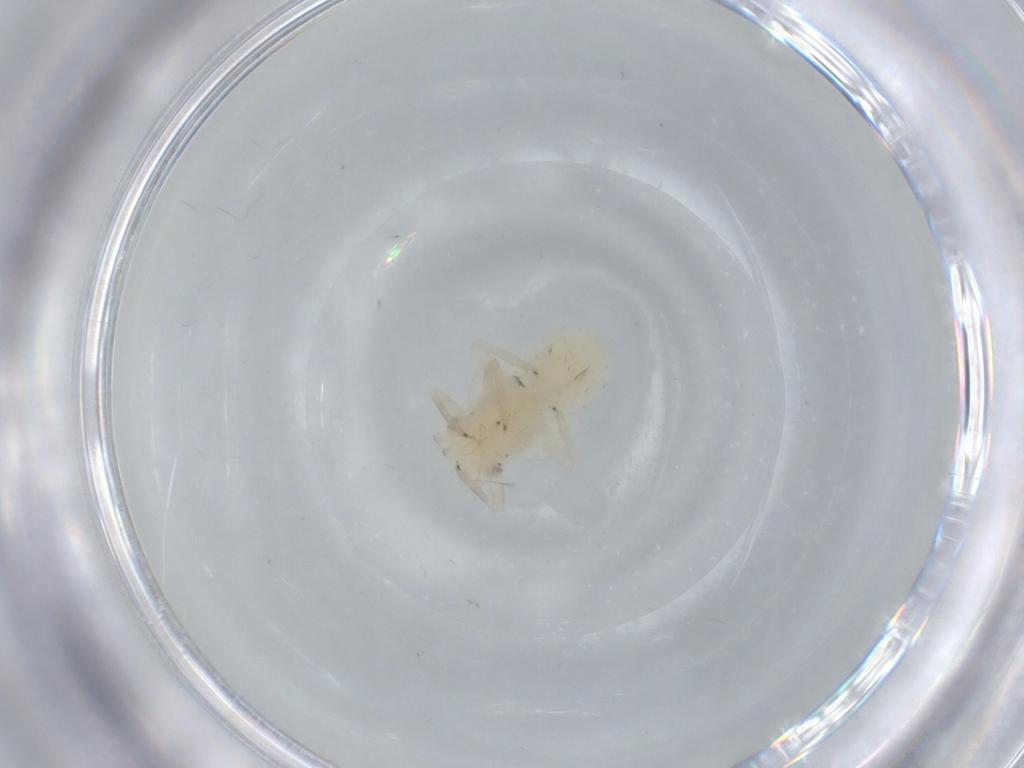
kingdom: Animalia
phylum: Arthropoda
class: Insecta
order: Hemiptera
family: Psyllidae
